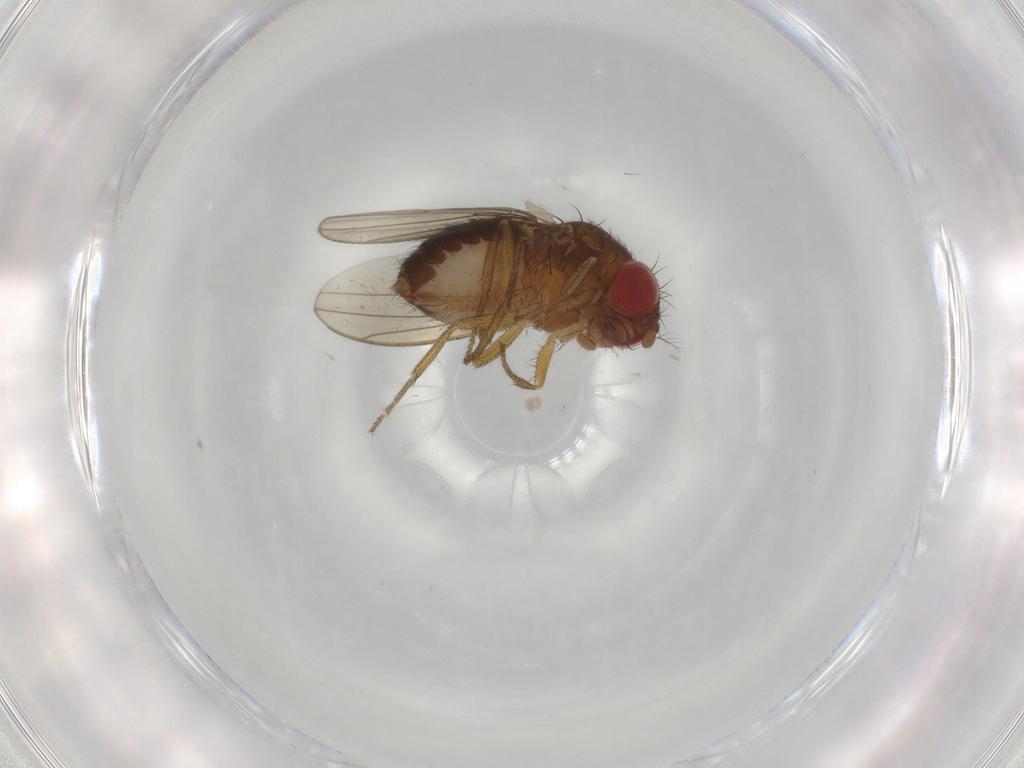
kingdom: Animalia
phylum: Arthropoda
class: Insecta
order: Diptera
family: Drosophilidae
